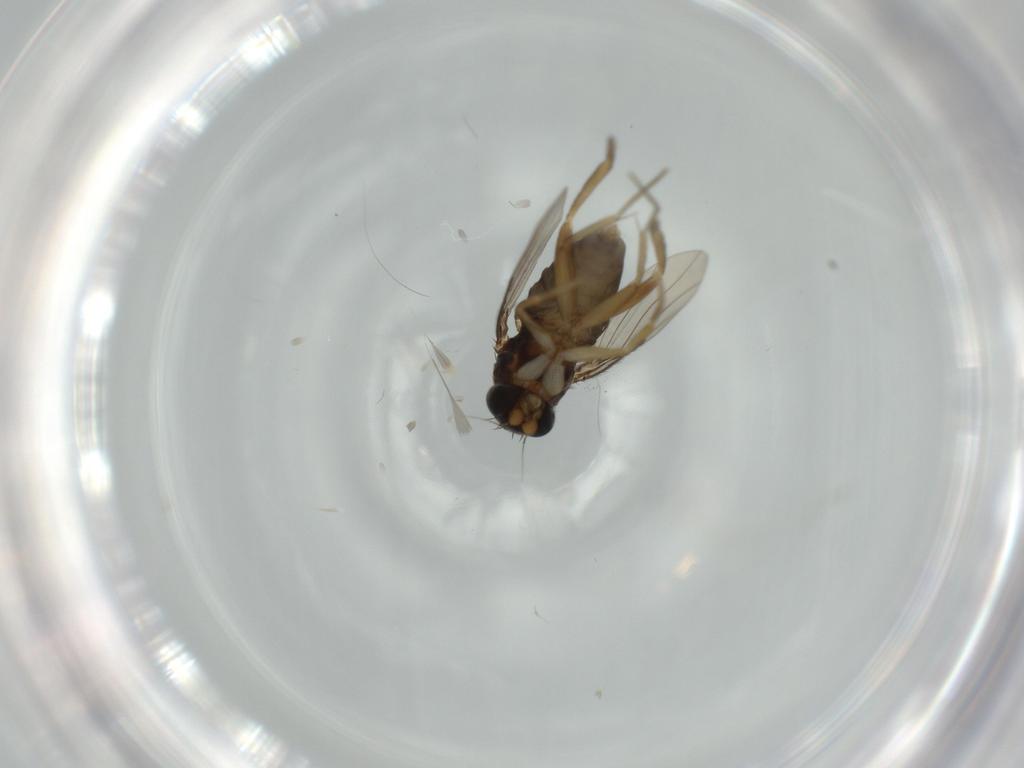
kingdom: Animalia
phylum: Arthropoda
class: Insecta
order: Diptera
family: Phoridae
